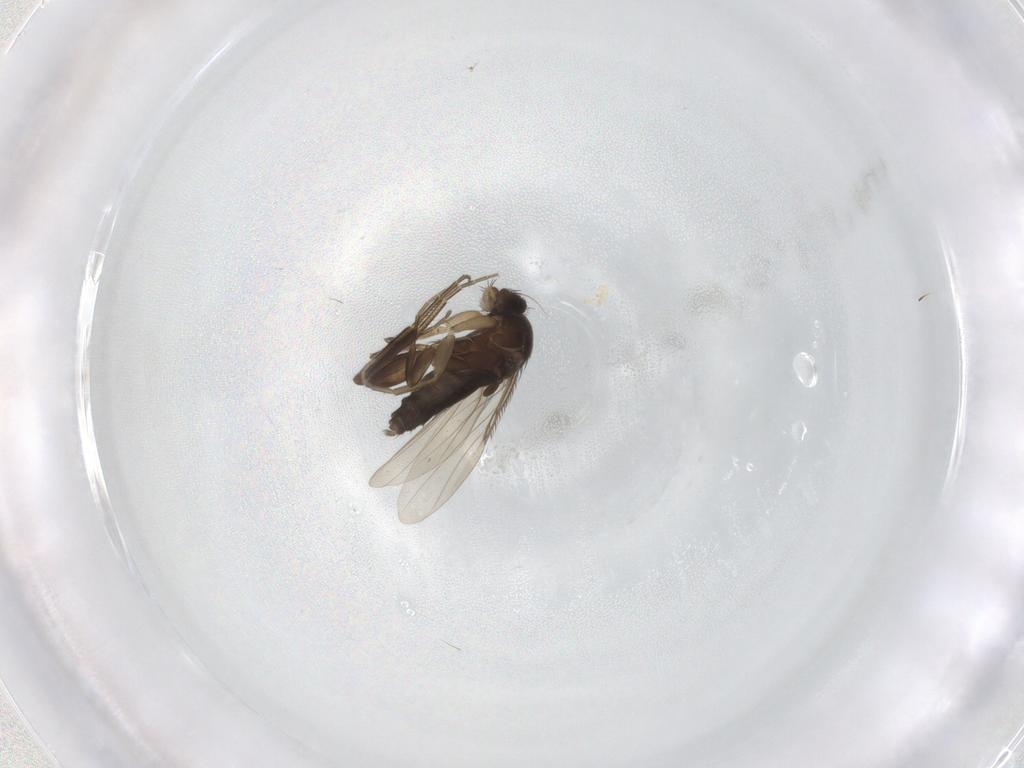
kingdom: Animalia
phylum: Arthropoda
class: Insecta
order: Diptera
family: Phoridae
